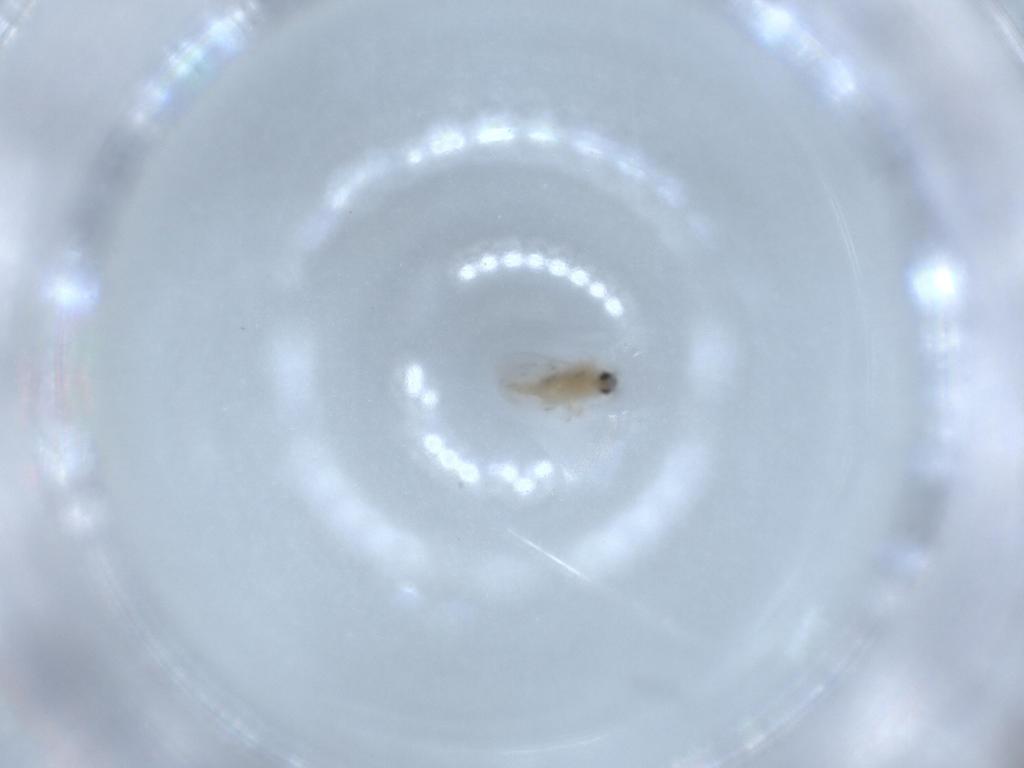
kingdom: Animalia
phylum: Arthropoda
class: Insecta
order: Diptera
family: Cecidomyiidae
